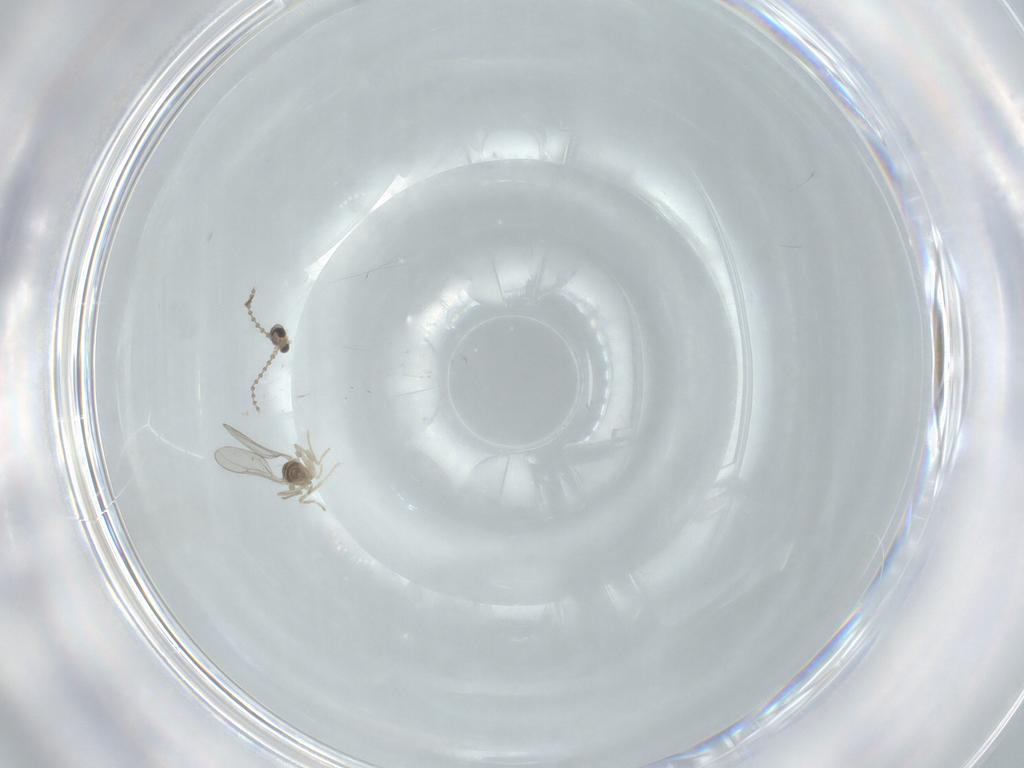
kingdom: Animalia
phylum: Arthropoda
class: Insecta
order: Diptera
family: Cecidomyiidae
